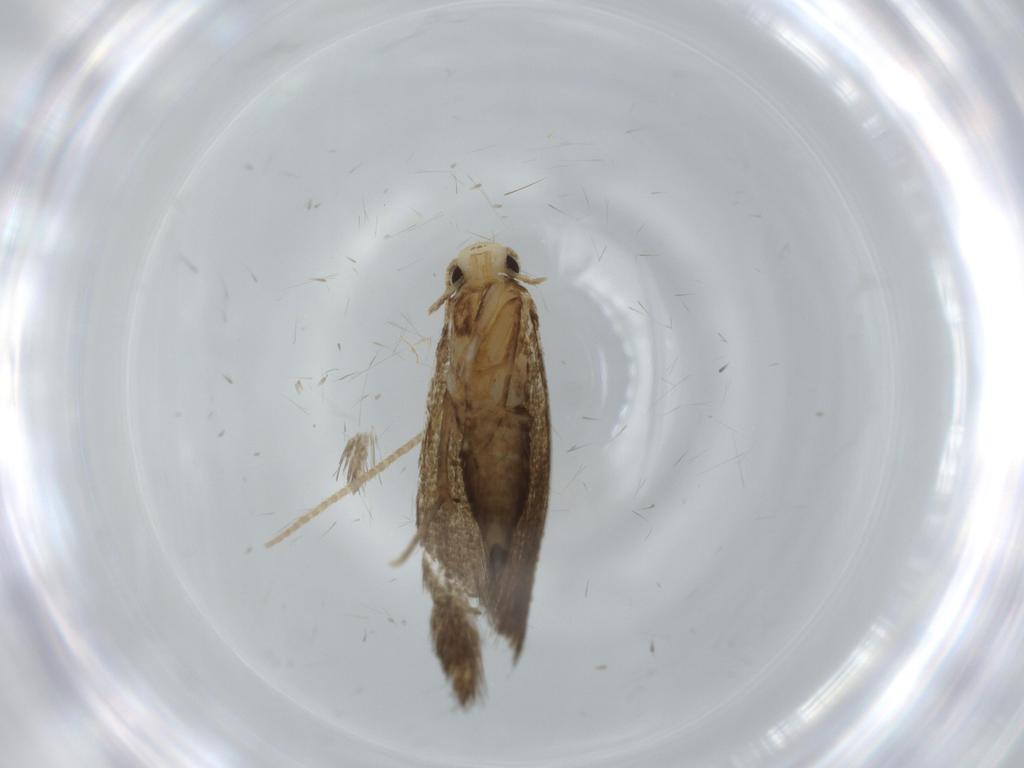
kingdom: Animalia
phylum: Arthropoda
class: Insecta
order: Lepidoptera
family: Tineidae
